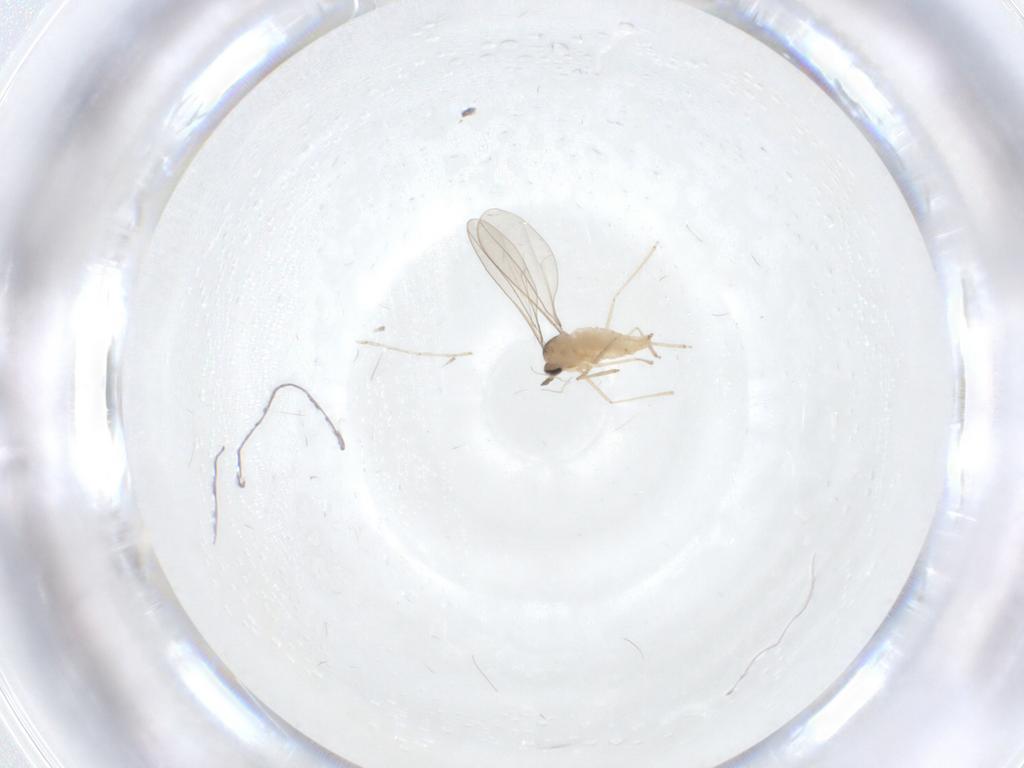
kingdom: Animalia
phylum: Arthropoda
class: Insecta
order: Diptera
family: Cecidomyiidae
